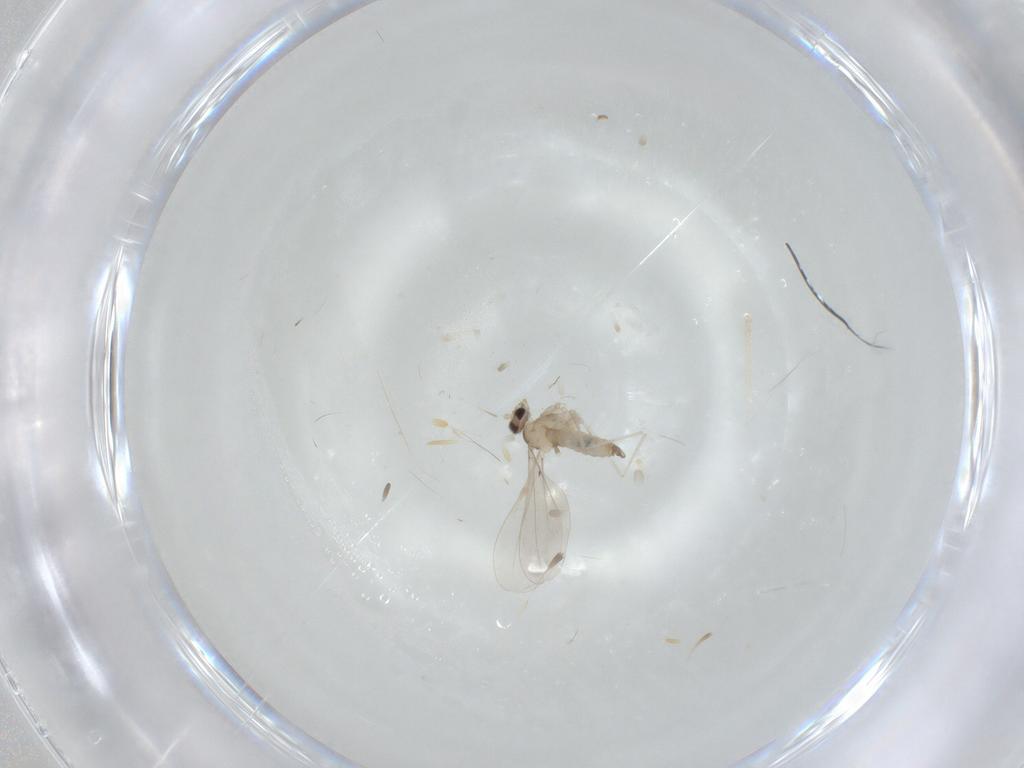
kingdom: Animalia
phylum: Arthropoda
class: Insecta
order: Diptera
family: Cecidomyiidae
